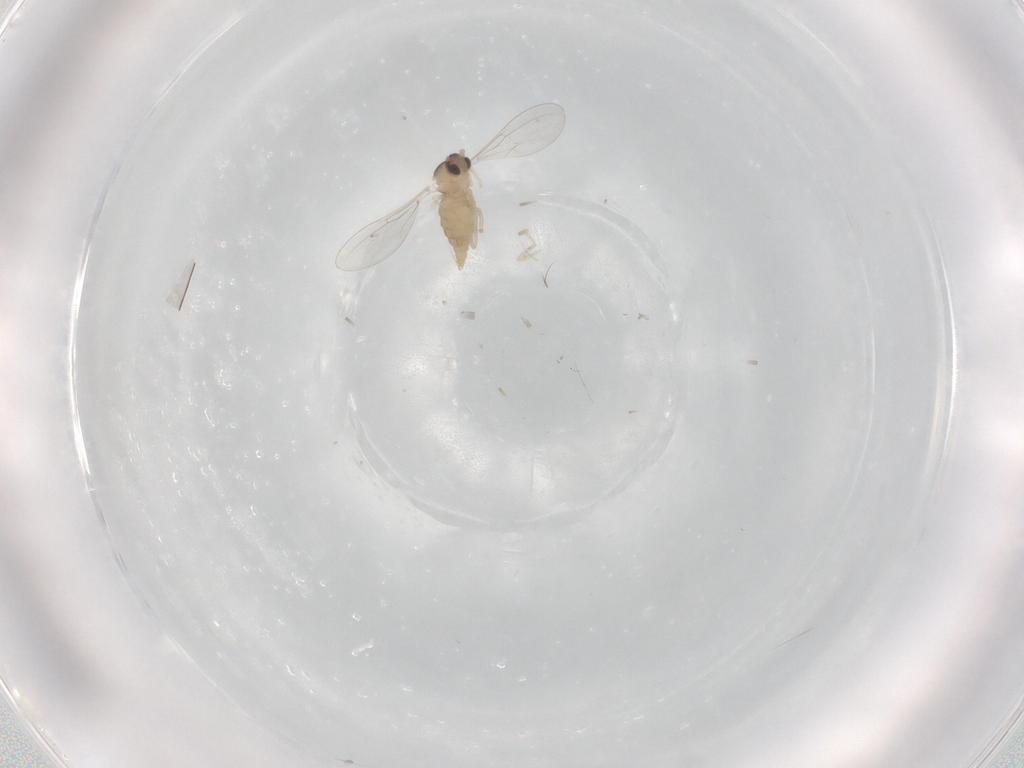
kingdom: Animalia
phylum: Arthropoda
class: Insecta
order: Diptera
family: Cecidomyiidae
